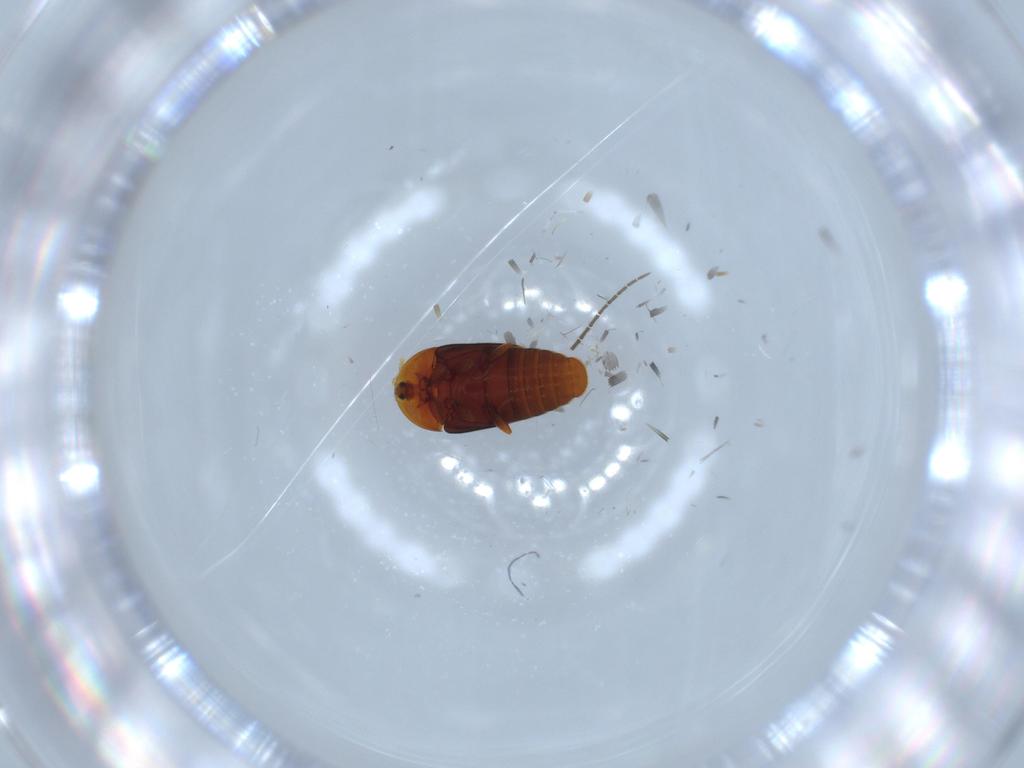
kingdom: Animalia
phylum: Arthropoda
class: Insecta
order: Coleoptera
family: Corylophidae
